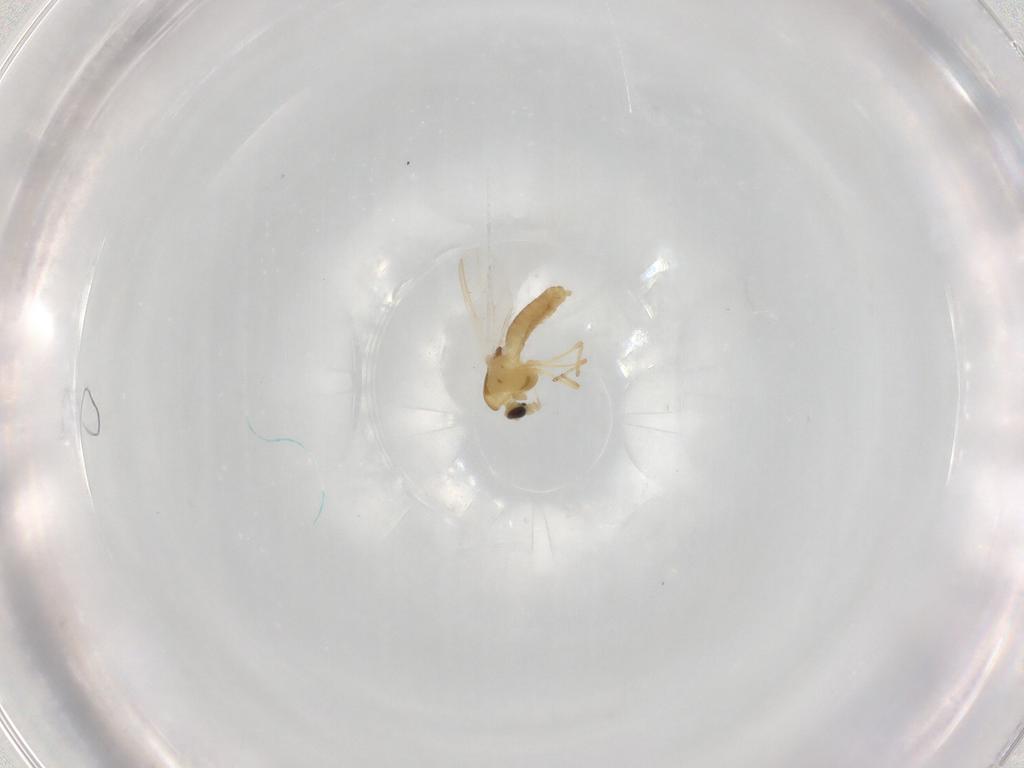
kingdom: Animalia
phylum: Arthropoda
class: Insecta
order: Diptera
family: Chironomidae
